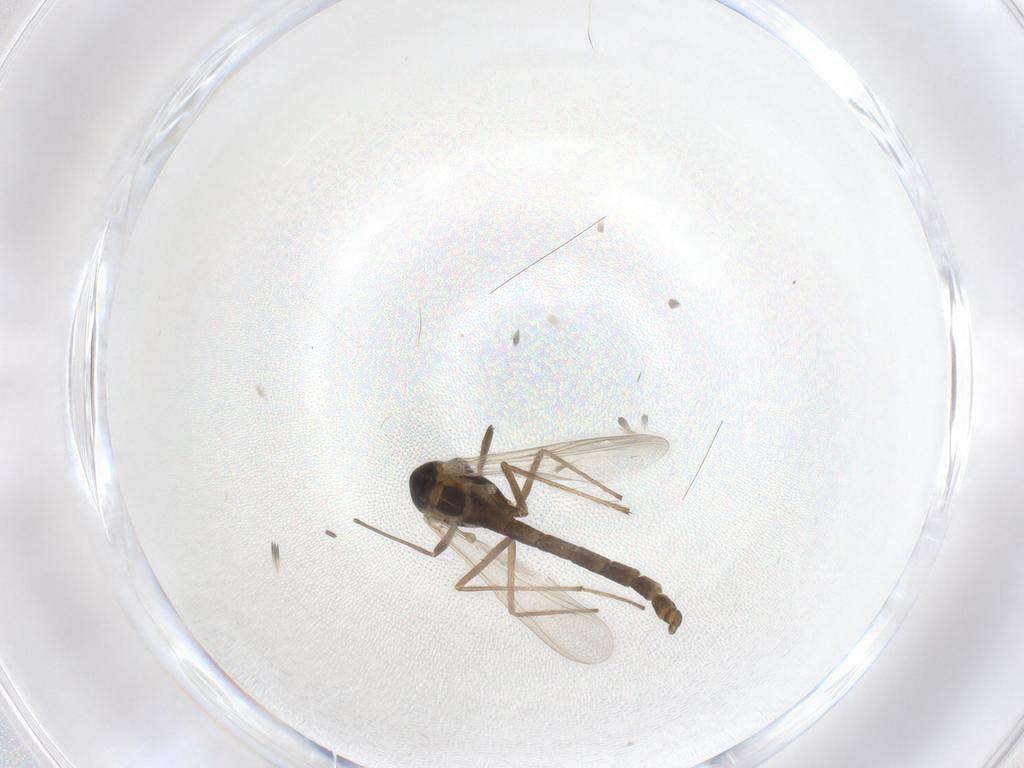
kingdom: Animalia
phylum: Arthropoda
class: Insecta
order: Diptera
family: Chironomidae
